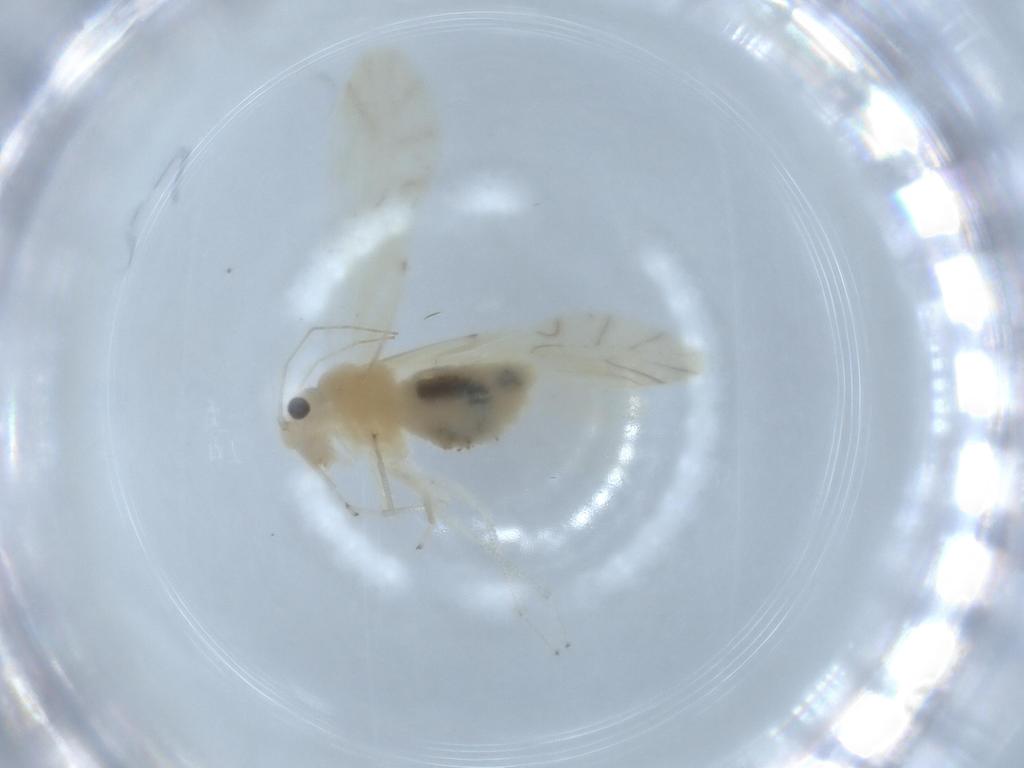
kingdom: Animalia
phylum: Arthropoda
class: Insecta
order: Psocodea
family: Caeciliusidae
